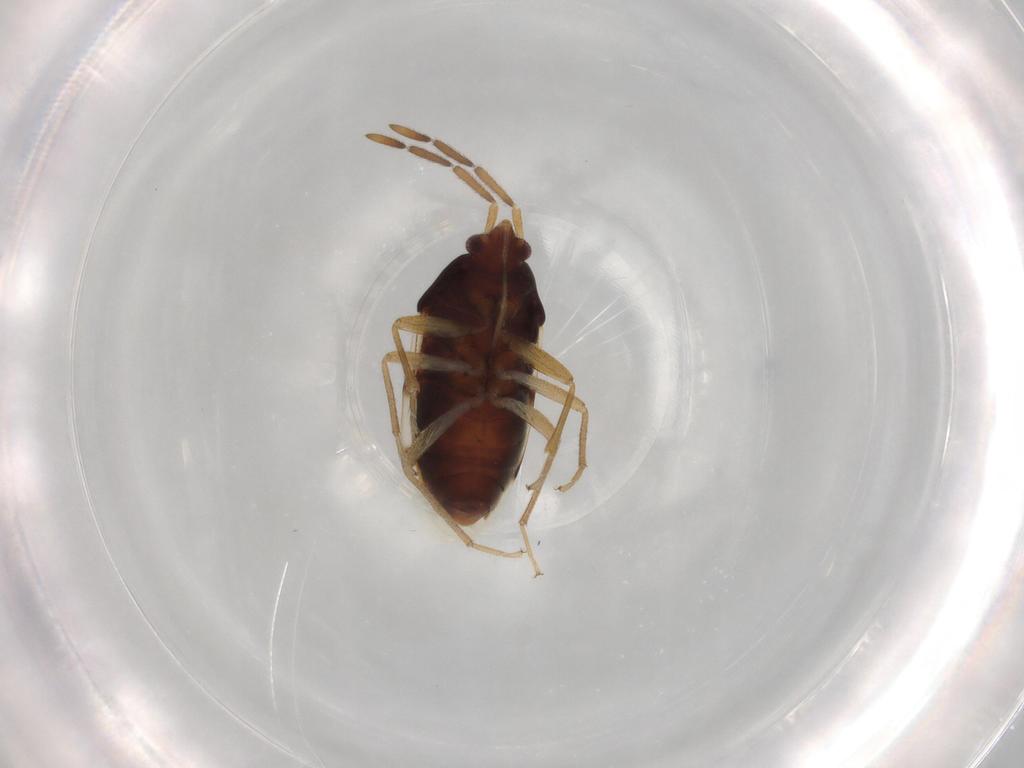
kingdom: Animalia
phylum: Arthropoda
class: Insecta
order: Hemiptera
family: Rhyparochromidae
